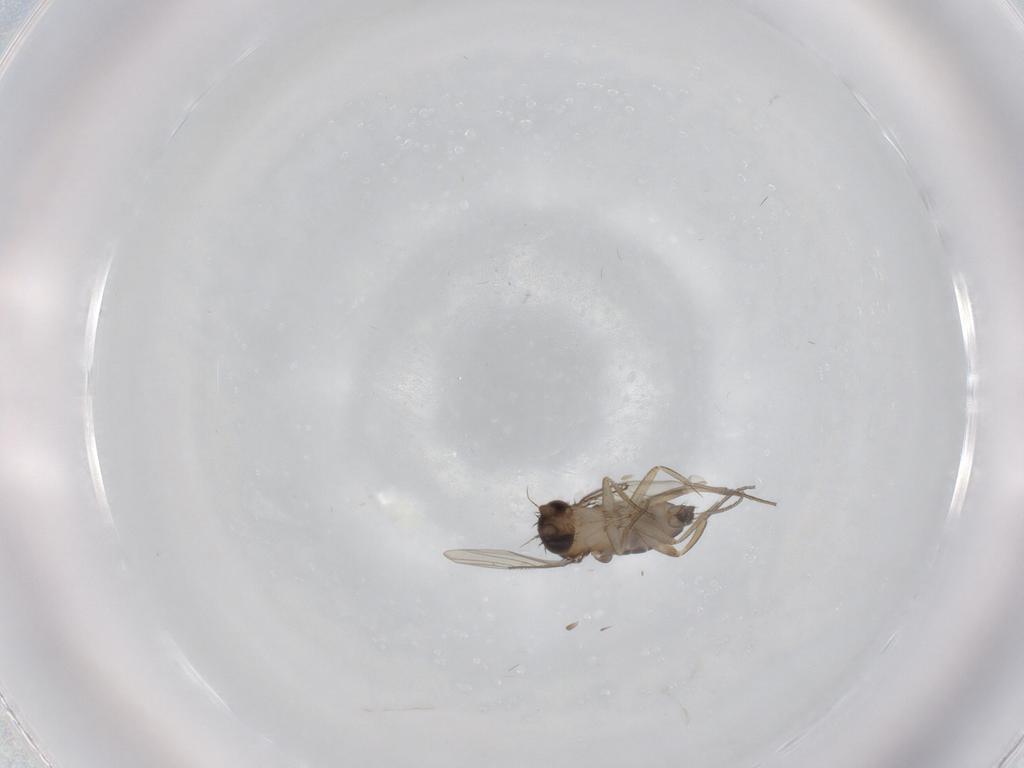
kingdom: Animalia
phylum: Arthropoda
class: Insecta
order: Diptera
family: Phoridae
